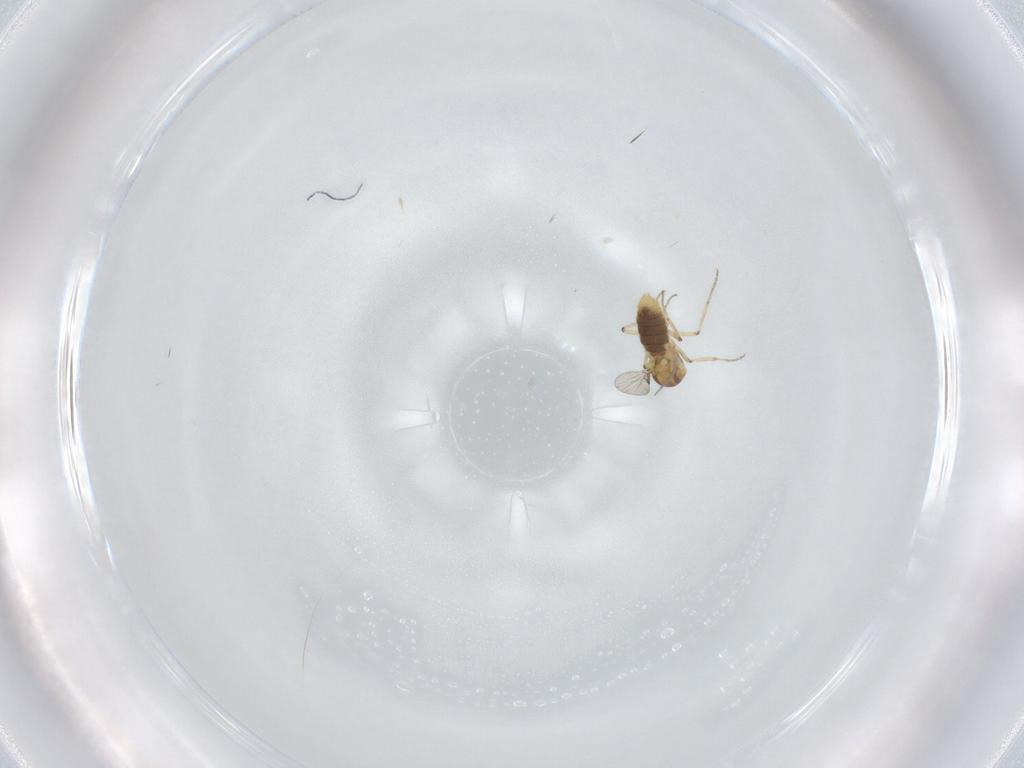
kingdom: Animalia
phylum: Arthropoda
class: Insecta
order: Diptera
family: Ceratopogonidae
